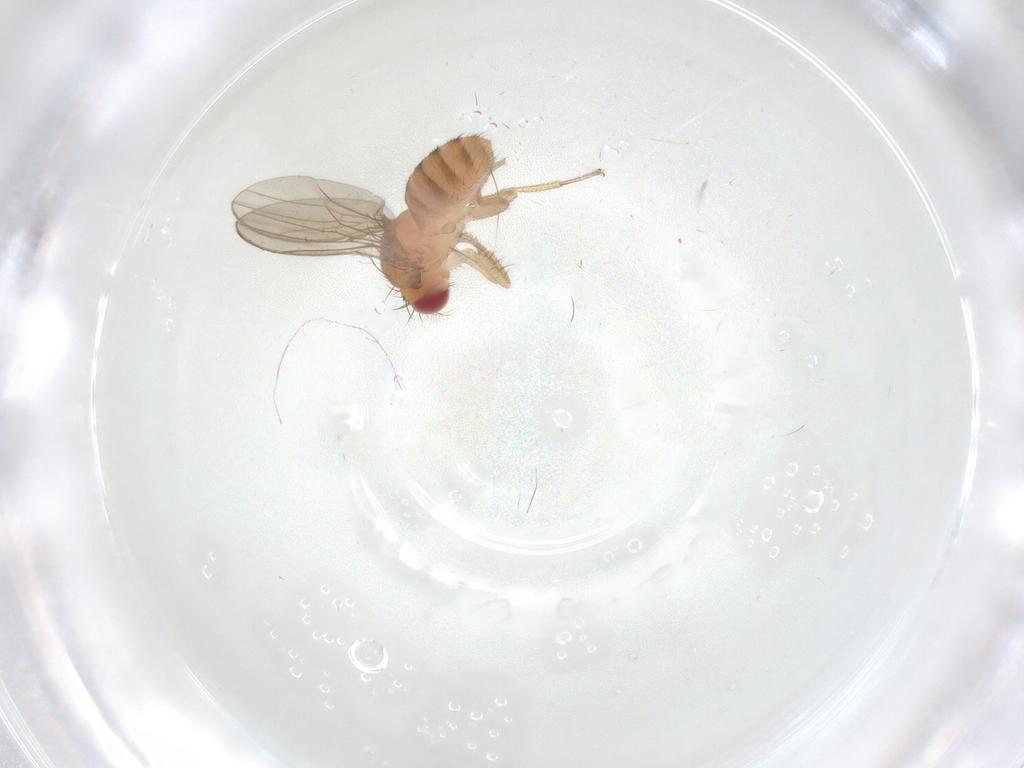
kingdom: Animalia
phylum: Arthropoda
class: Insecta
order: Diptera
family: Drosophilidae
